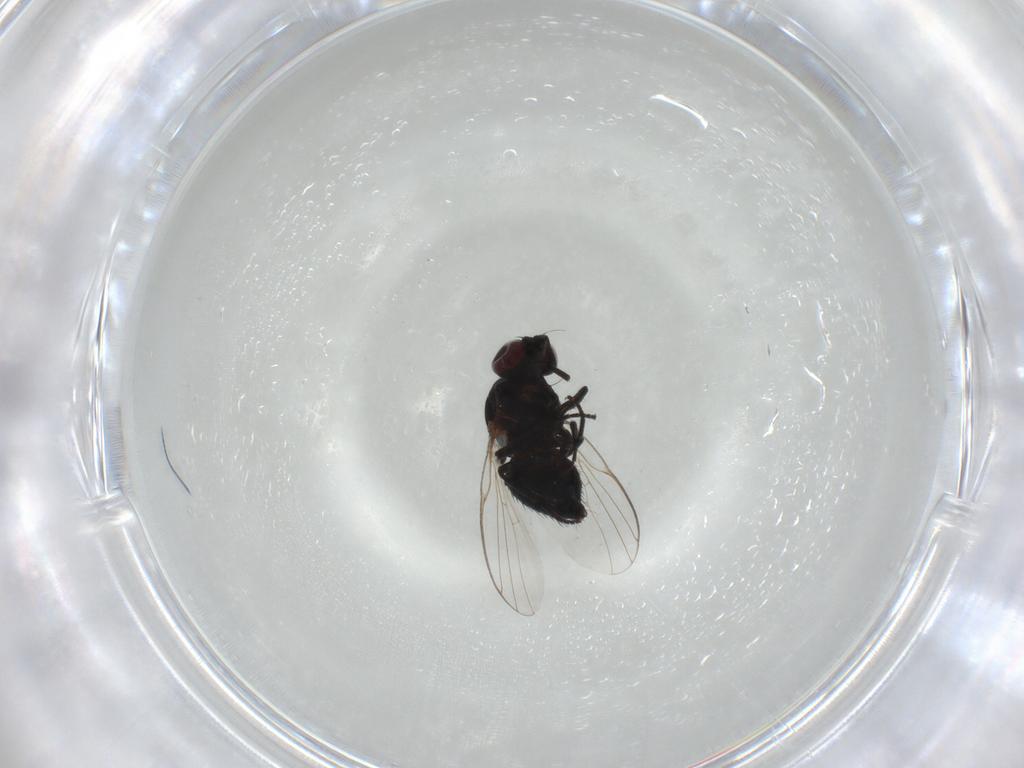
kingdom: Animalia
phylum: Arthropoda
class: Insecta
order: Diptera
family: Agromyzidae
